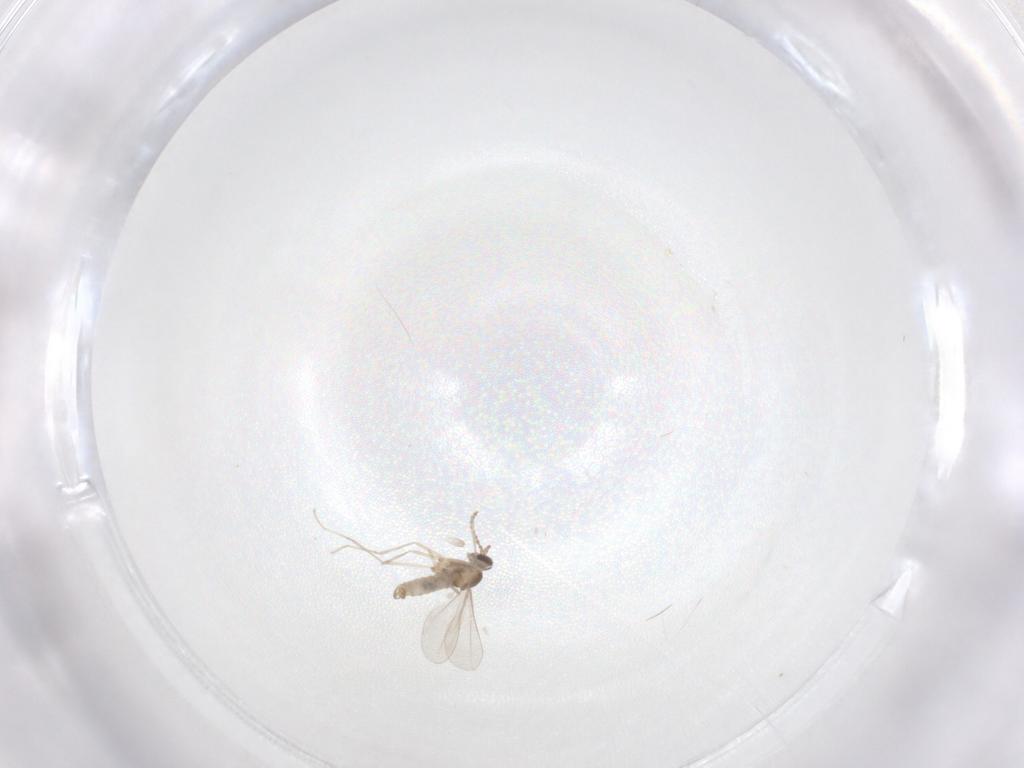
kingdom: Animalia
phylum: Arthropoda
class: Insecta
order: Diptera
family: Cecidomyiidae
